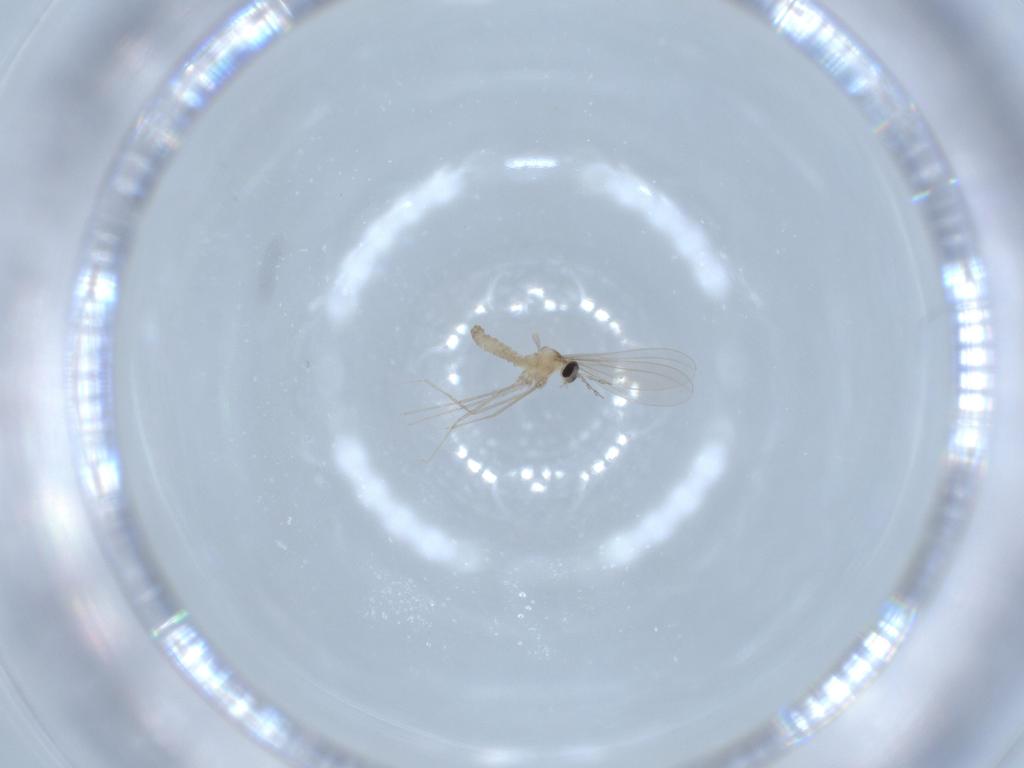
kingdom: Animalia
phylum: Arthropoda
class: Insecta
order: Diptera
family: Cecidomyiidae
